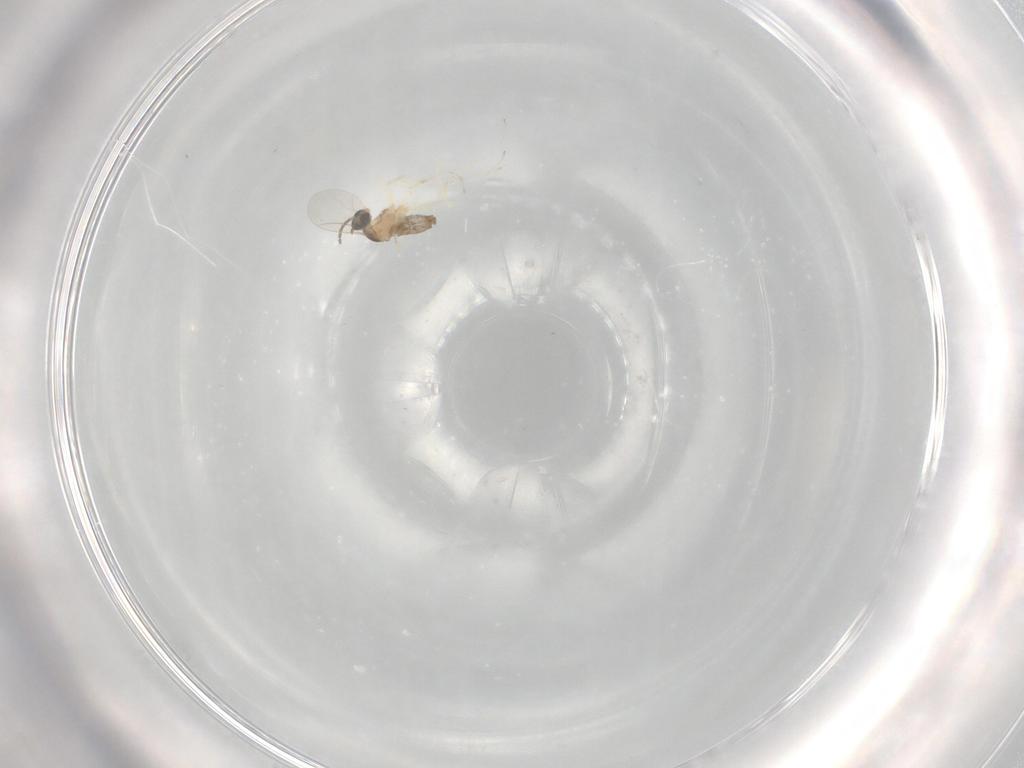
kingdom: Animalia
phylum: Arthropoda
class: Insecta
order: Diptera
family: Cecidomyiidae
